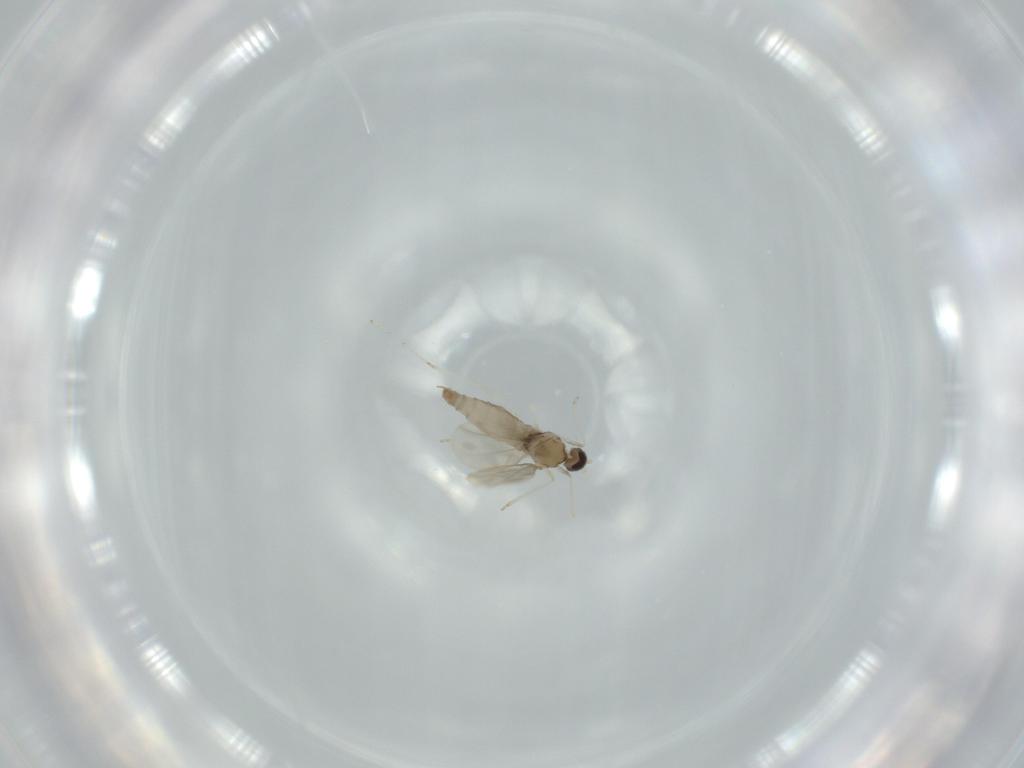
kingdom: Animalia
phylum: Arthropoda
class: Insecta
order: Diptera
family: Cecidomyiidae
